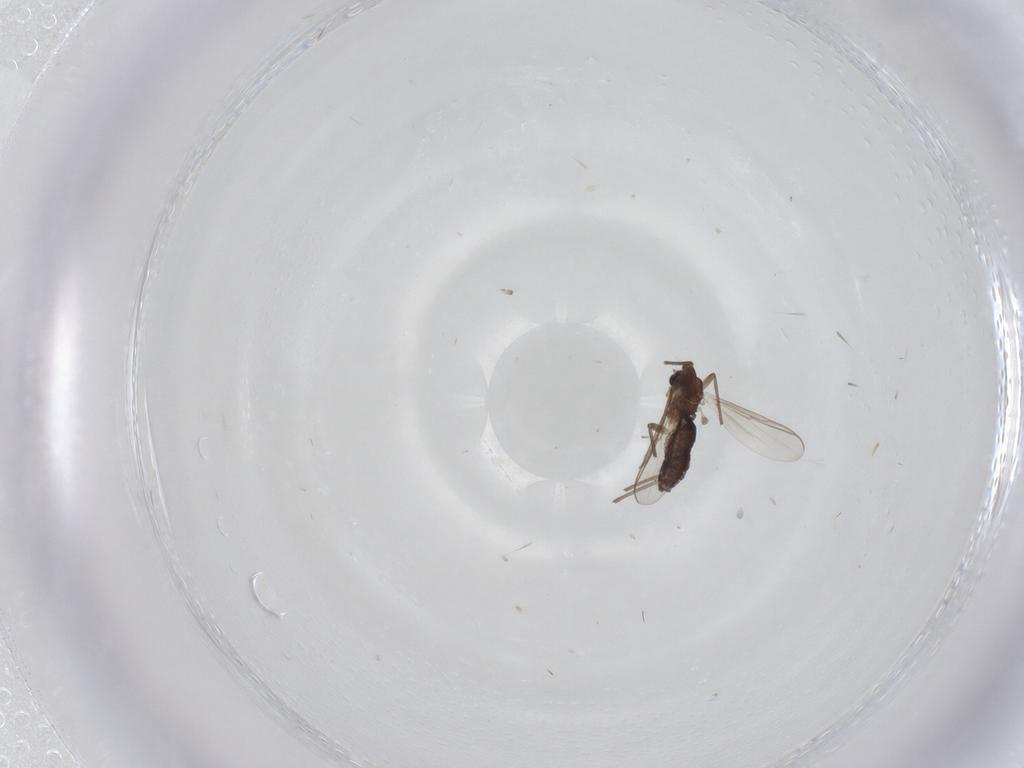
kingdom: Animalia
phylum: Arthropoda
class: Insecta
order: Diptera
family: Chironomidae
